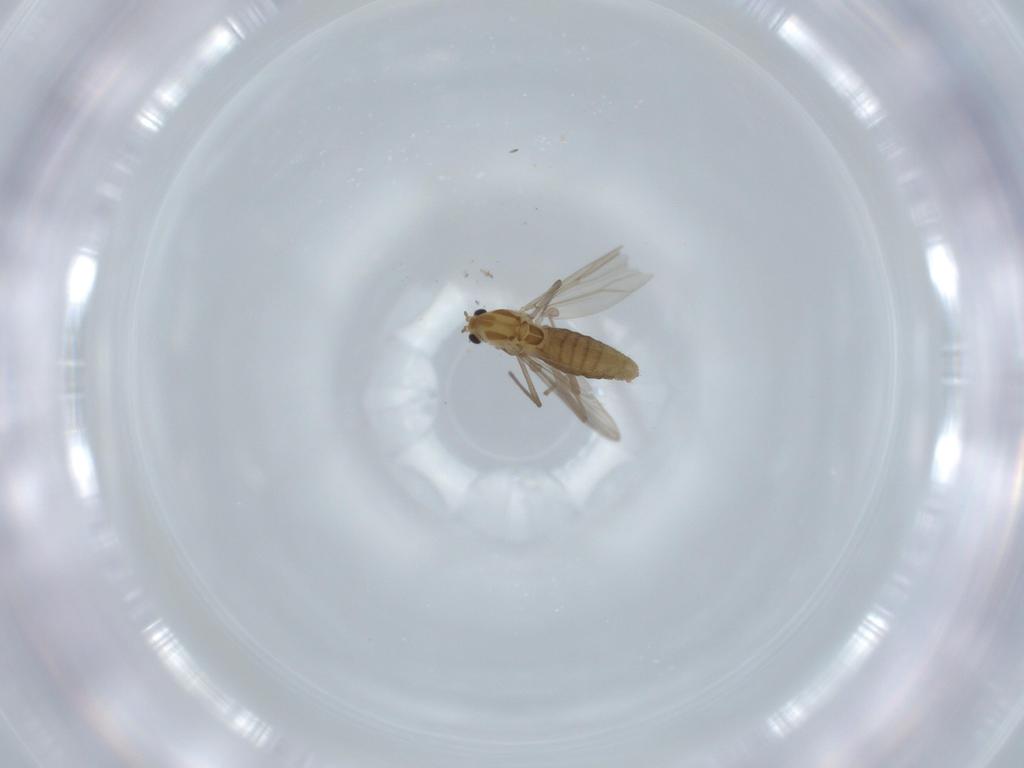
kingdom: Animalia
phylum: Arthropoda
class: Insecta
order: Diptera
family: Chironomidae
